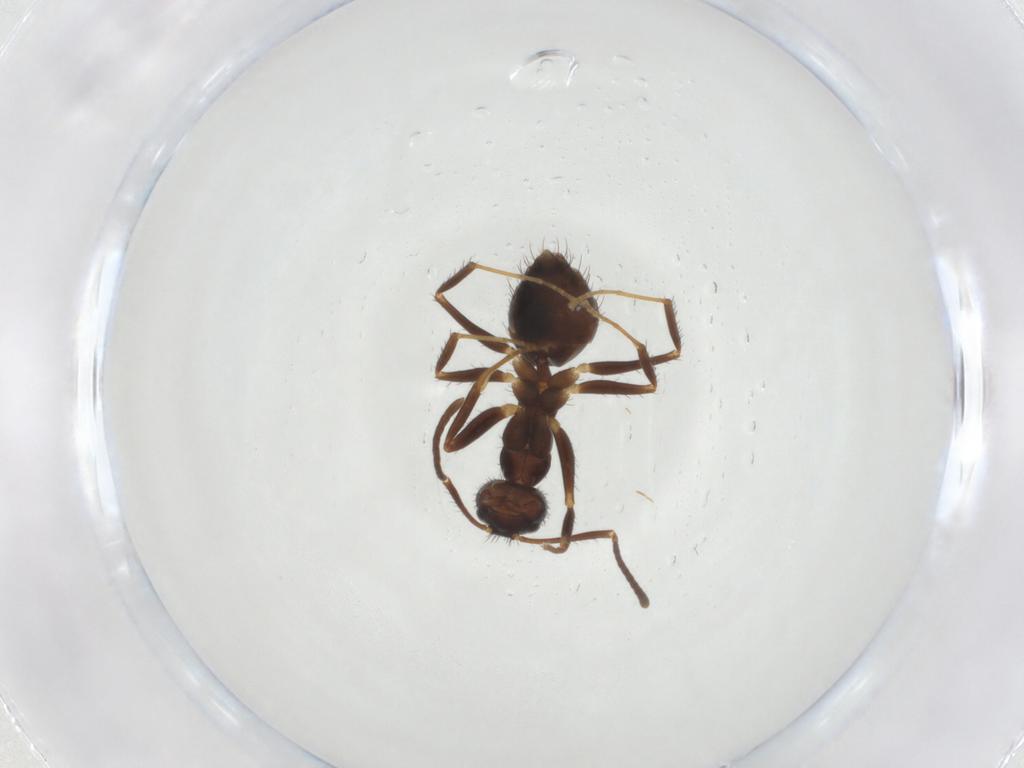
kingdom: Animalia
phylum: Arthropoda
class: Insecta
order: Hymenoptera
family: Formicidae
